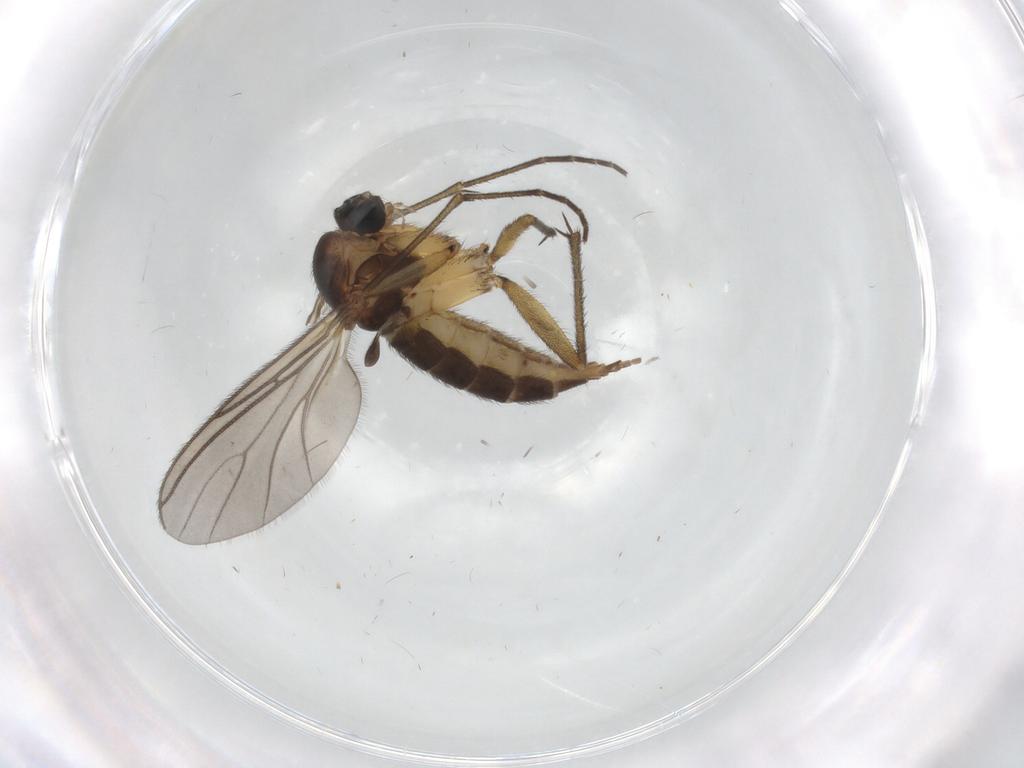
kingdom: Animalia
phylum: Arthropoda
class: Insecta
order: Diptera
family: Sciaridae
